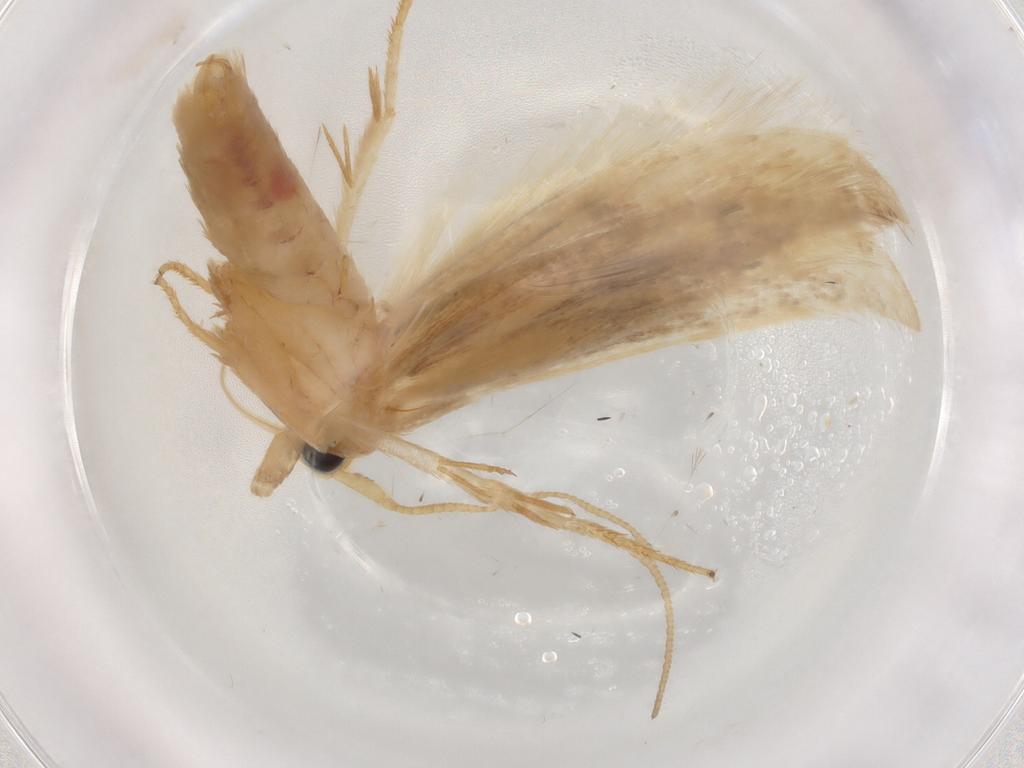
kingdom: Animalia
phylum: Arthropoda
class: Insecta
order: Lepidoptera
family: Geometridae
